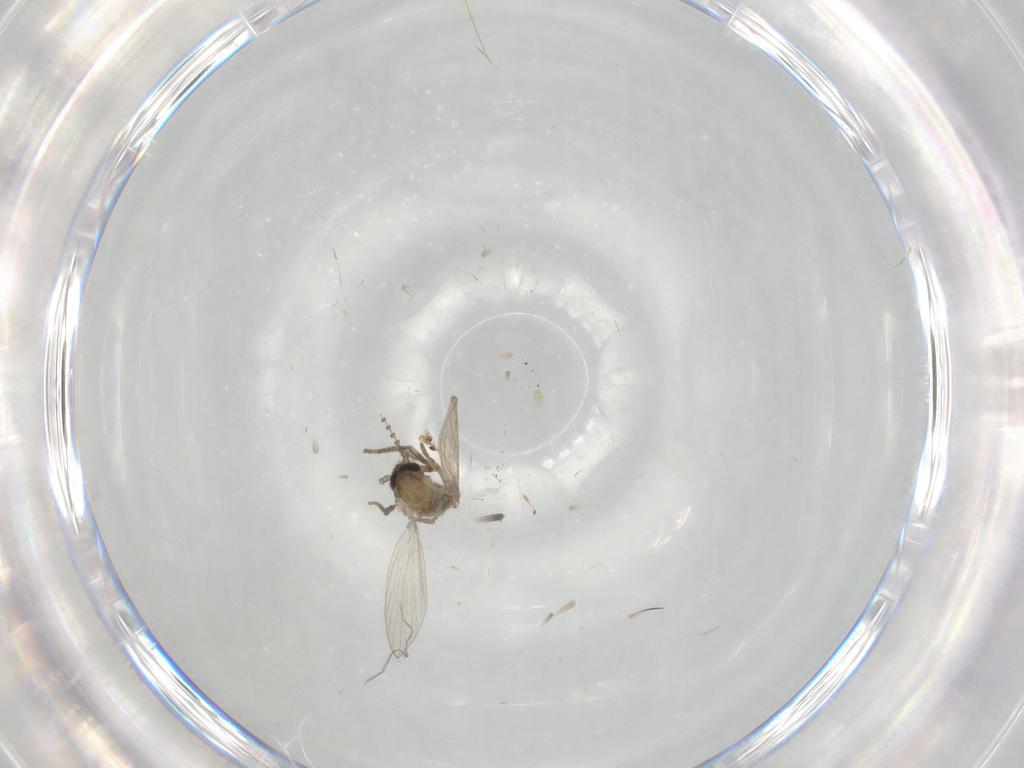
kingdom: Animalia
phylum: Arthropoda
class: Insecta
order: Diptera
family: Psychodidae
